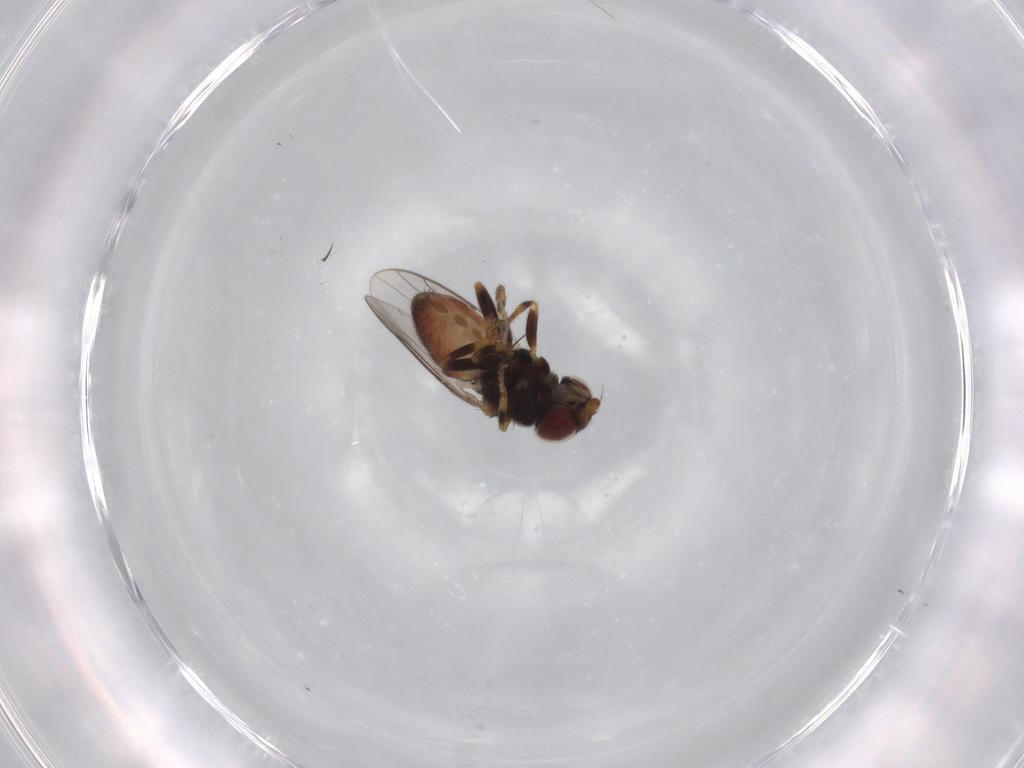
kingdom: Animalia
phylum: Arthropoda
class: Insecta
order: Diptera
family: Chloropidae
